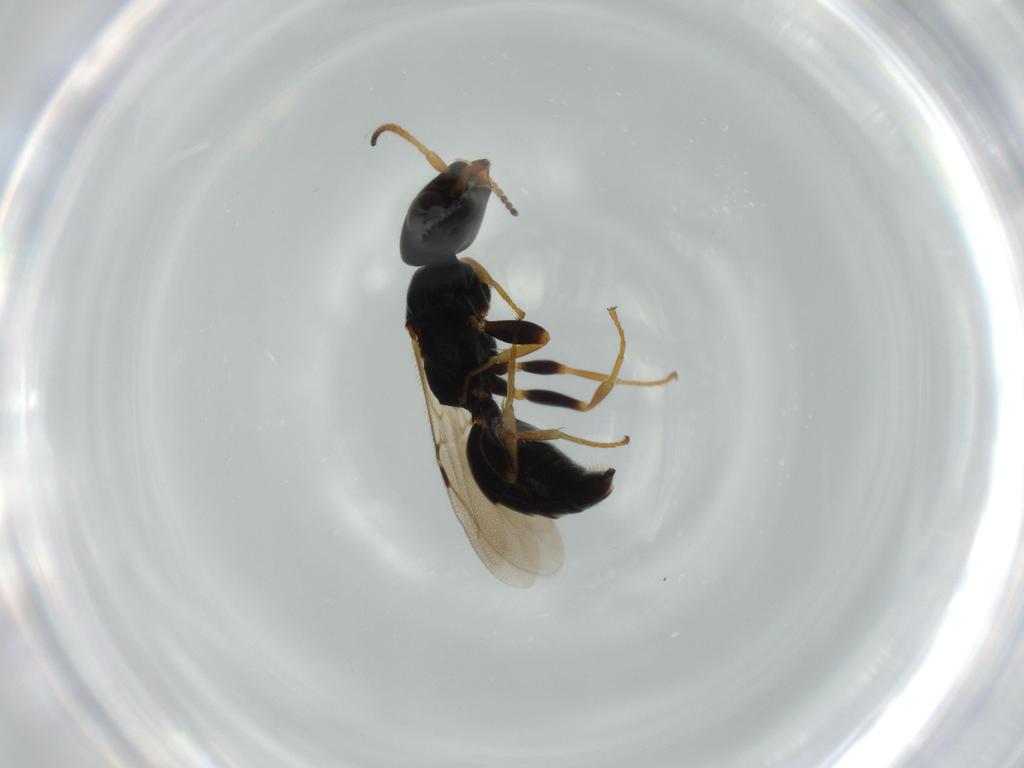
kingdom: Animalia
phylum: Arthropoda
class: Insecta
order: Hymenoptera
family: Bethylidae
